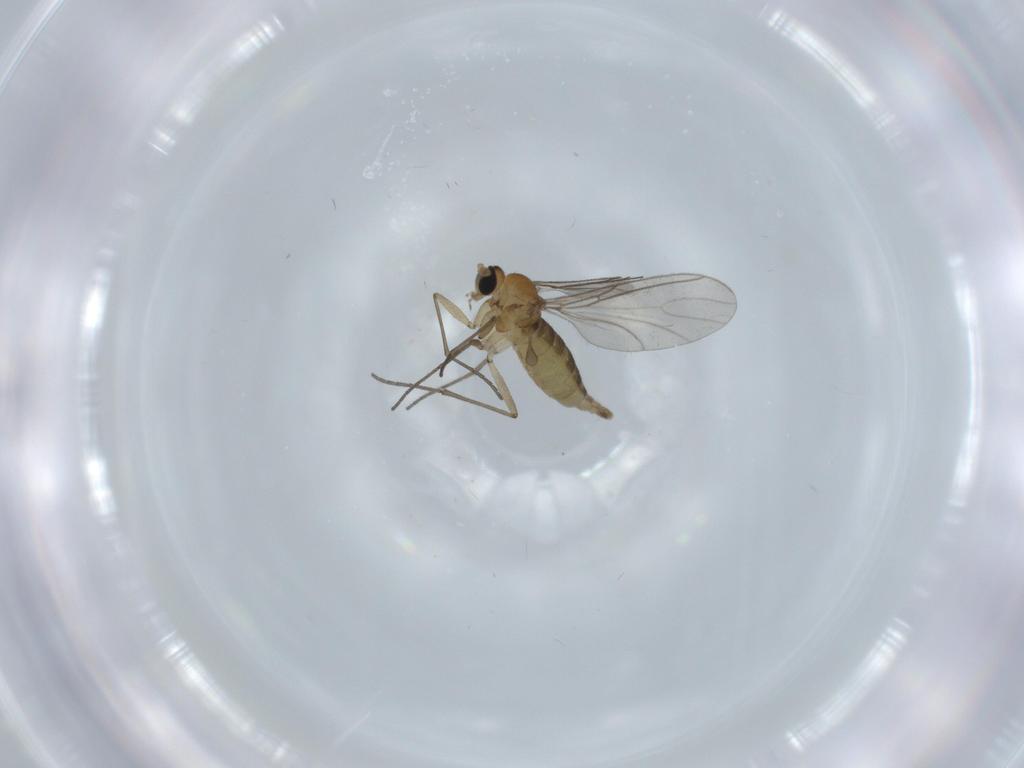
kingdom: Animalia
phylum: Arthropoda
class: Insecta
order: Diptera
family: Sciaridae
